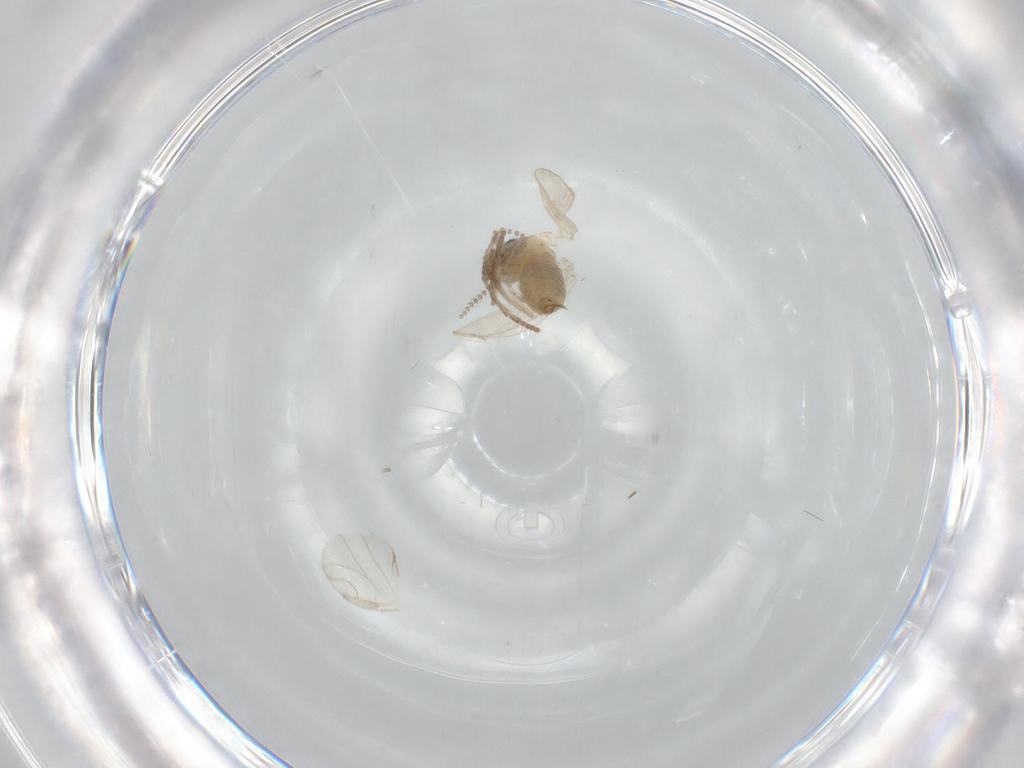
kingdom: Animalia
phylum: Arthropoda
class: Insecta
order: Diptera
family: Psychodidae
